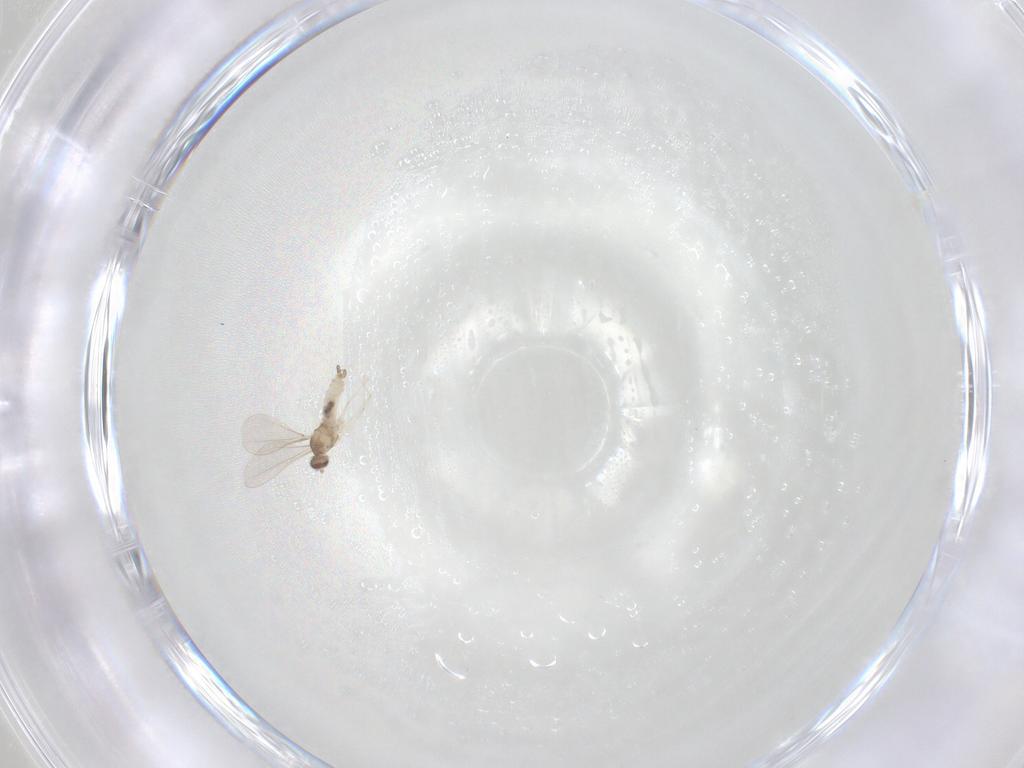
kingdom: Animalia
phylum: Arthropoda
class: Insecta
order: Diptera
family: Cecidomyiidae
